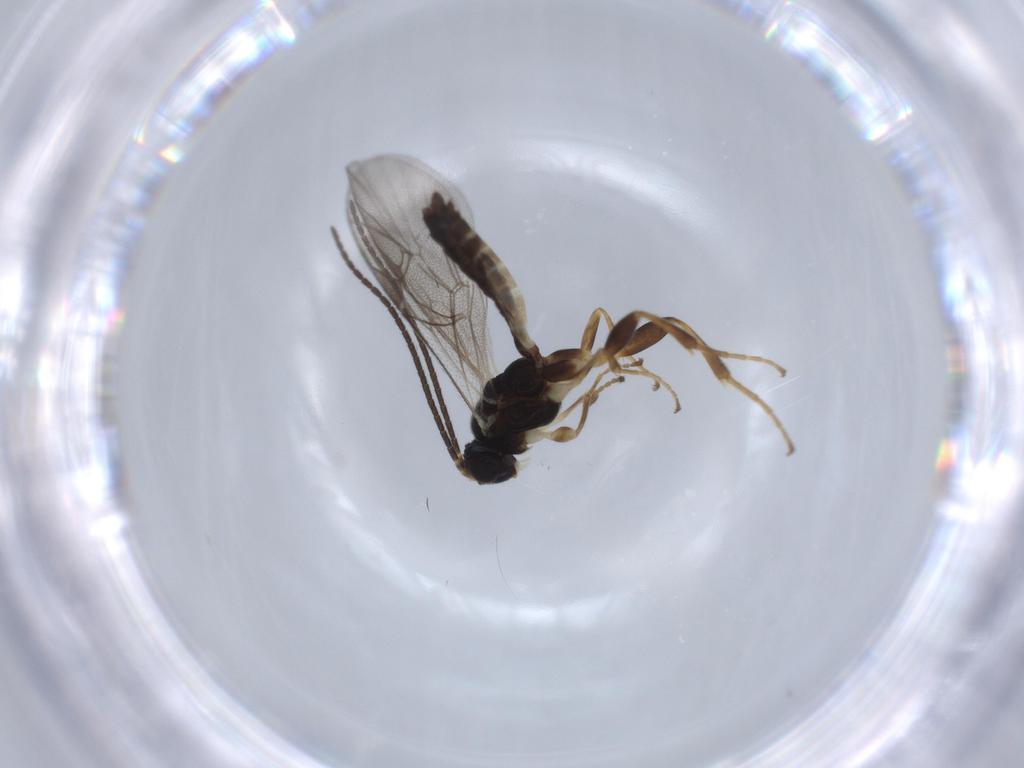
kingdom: Animalia
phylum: Arthropoda
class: Insecta
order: Hymenoptera
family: Ichneumonidae
